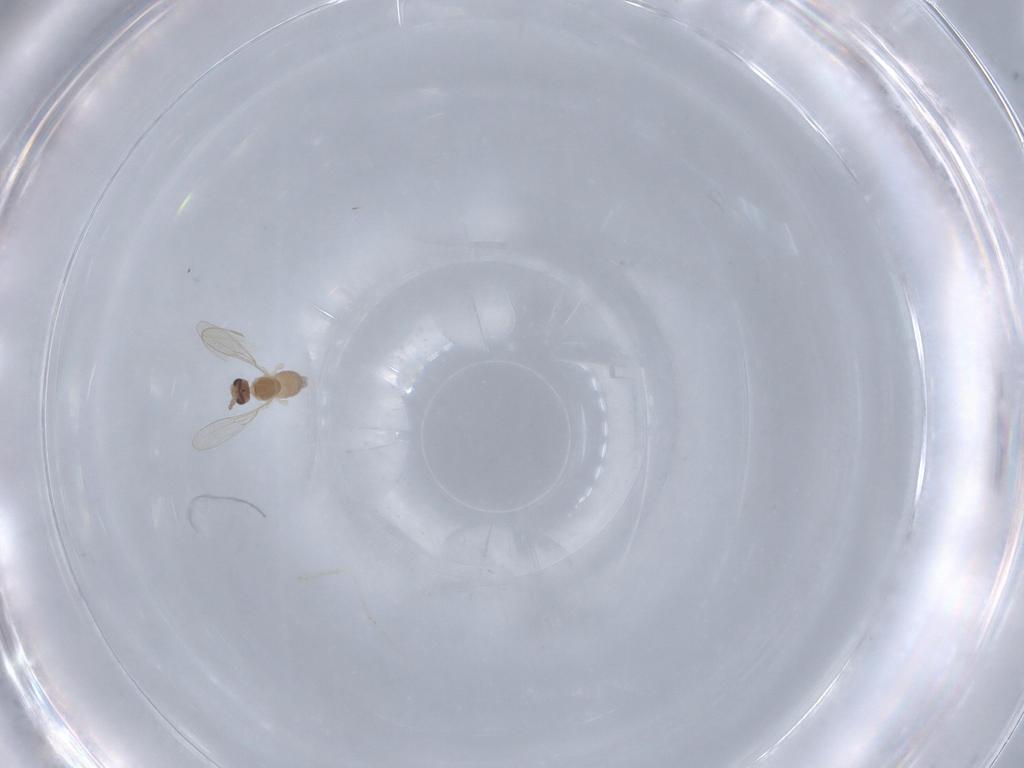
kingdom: Animalia
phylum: Arthropoda
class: Insecta
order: Diptera
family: Cecidomyiidae
